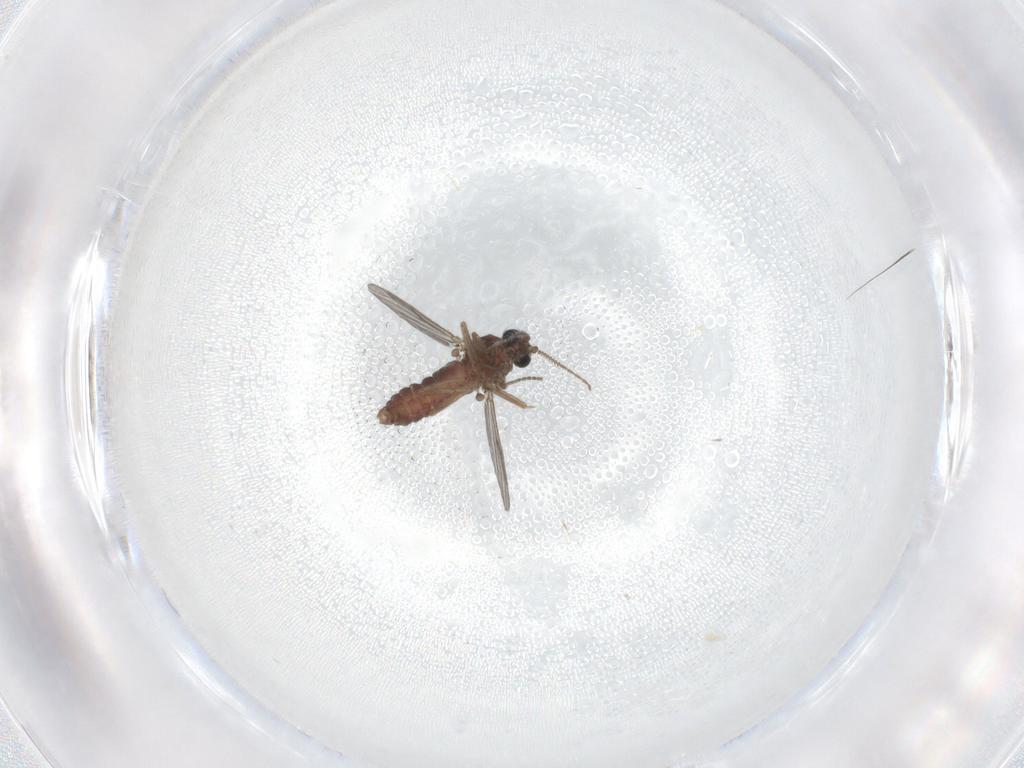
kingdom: Animalia
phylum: Arthropoda
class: Insecta
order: Diptera
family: Ceratopogonidae
